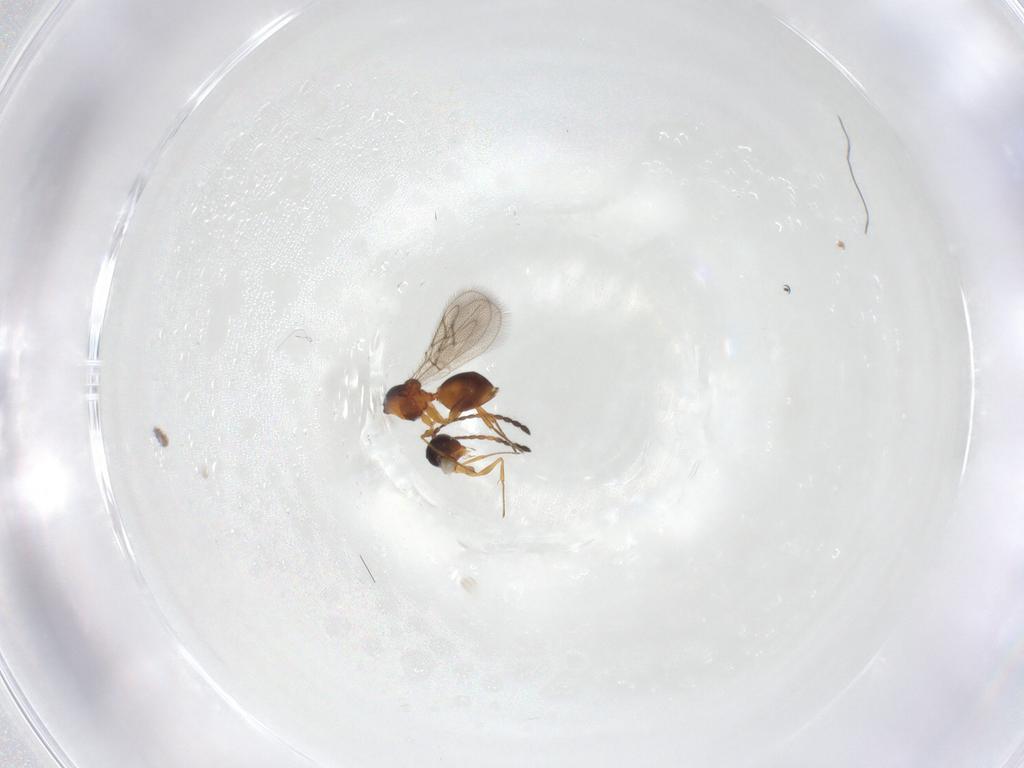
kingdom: Animalia
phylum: Arthropoda
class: Insecta
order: Hymenoptera
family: Figitidae
